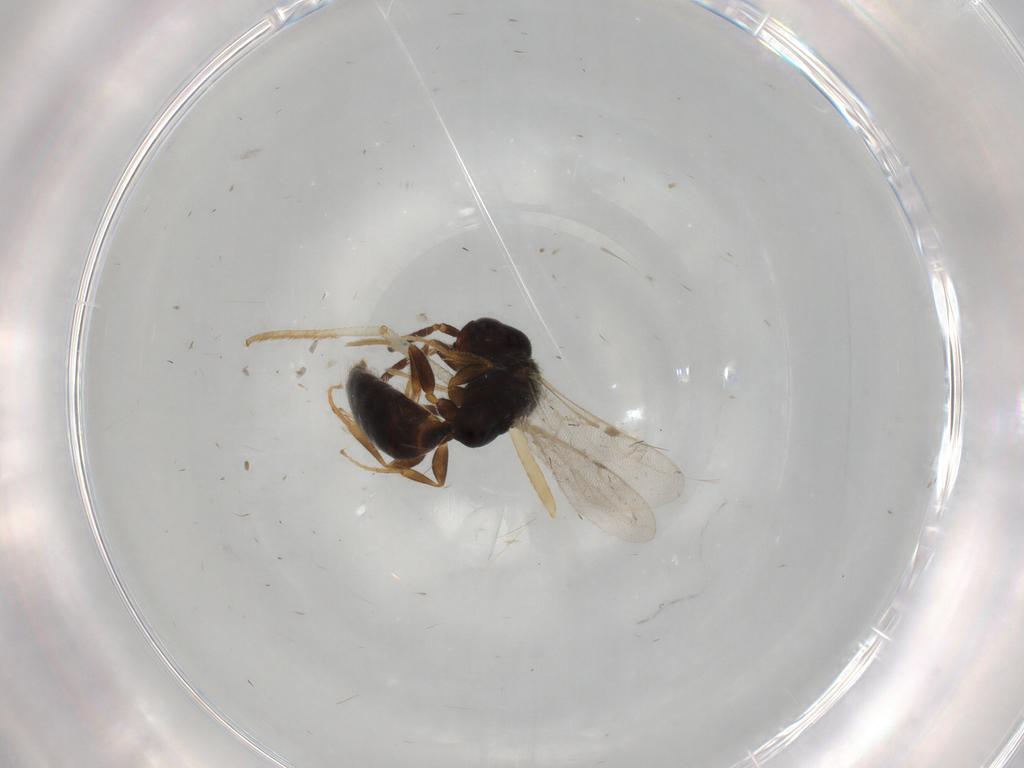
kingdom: Animalia
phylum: Arthropoda
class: Insecta
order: Hymenoptera
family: Bethylidae
